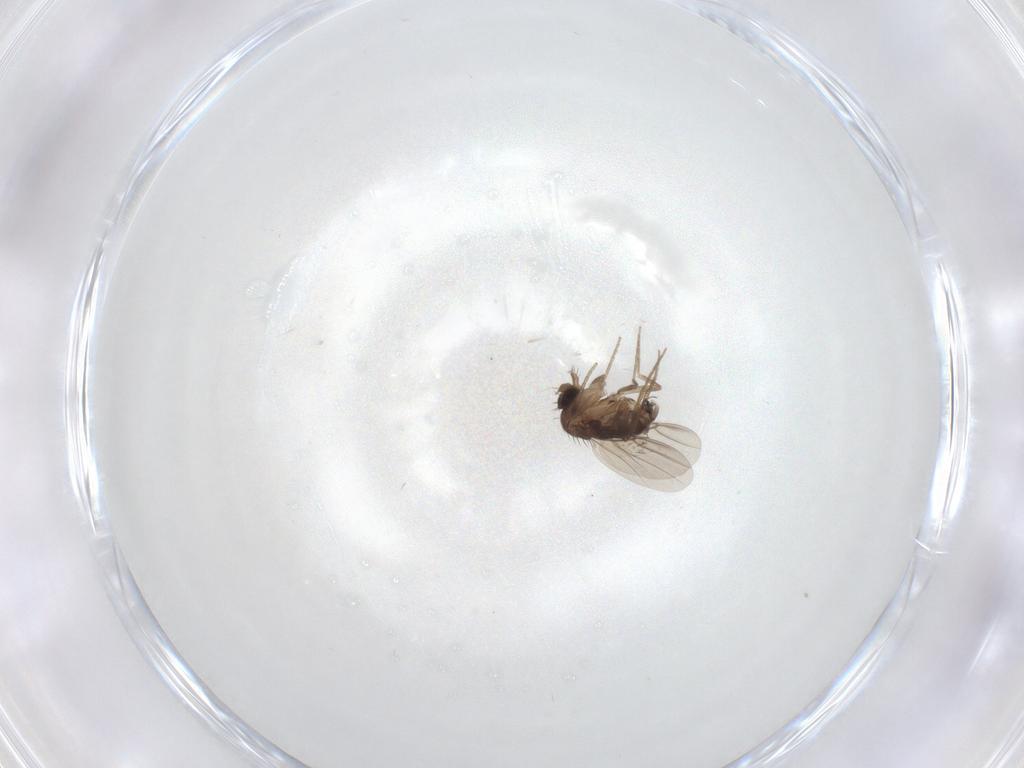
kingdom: Animalia
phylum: Arthropoda
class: Insecta
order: Diptera
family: Phoridae
